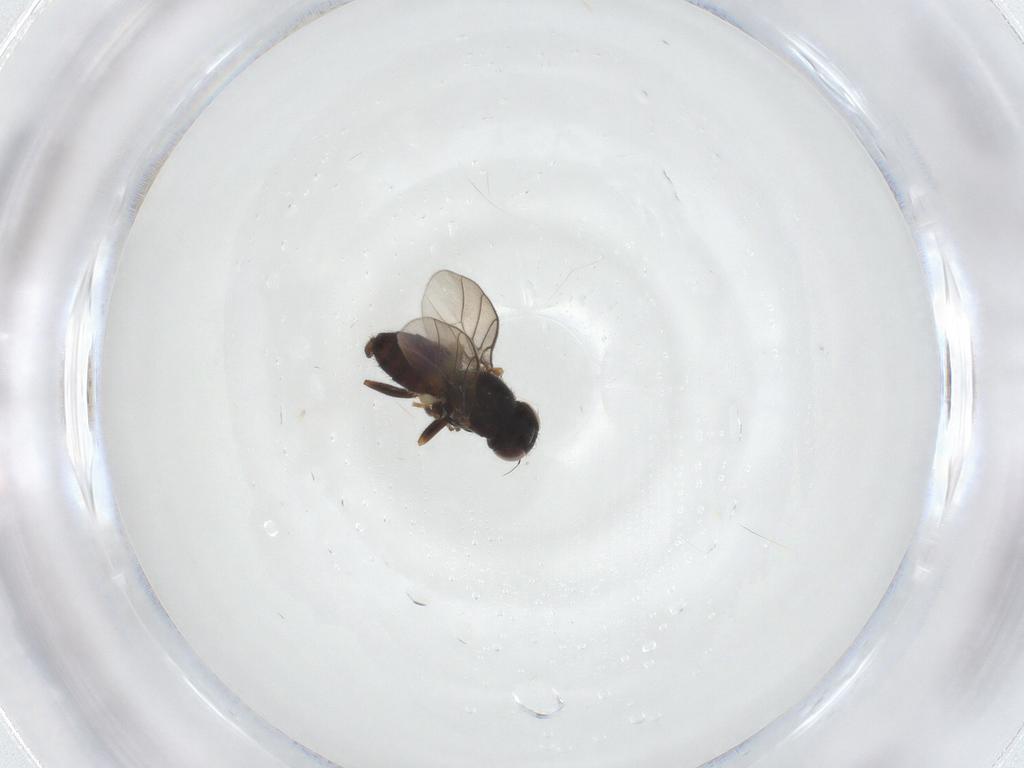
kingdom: Animalia
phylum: Arthropoda
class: Insecta
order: Diptera
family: Chloropidae
